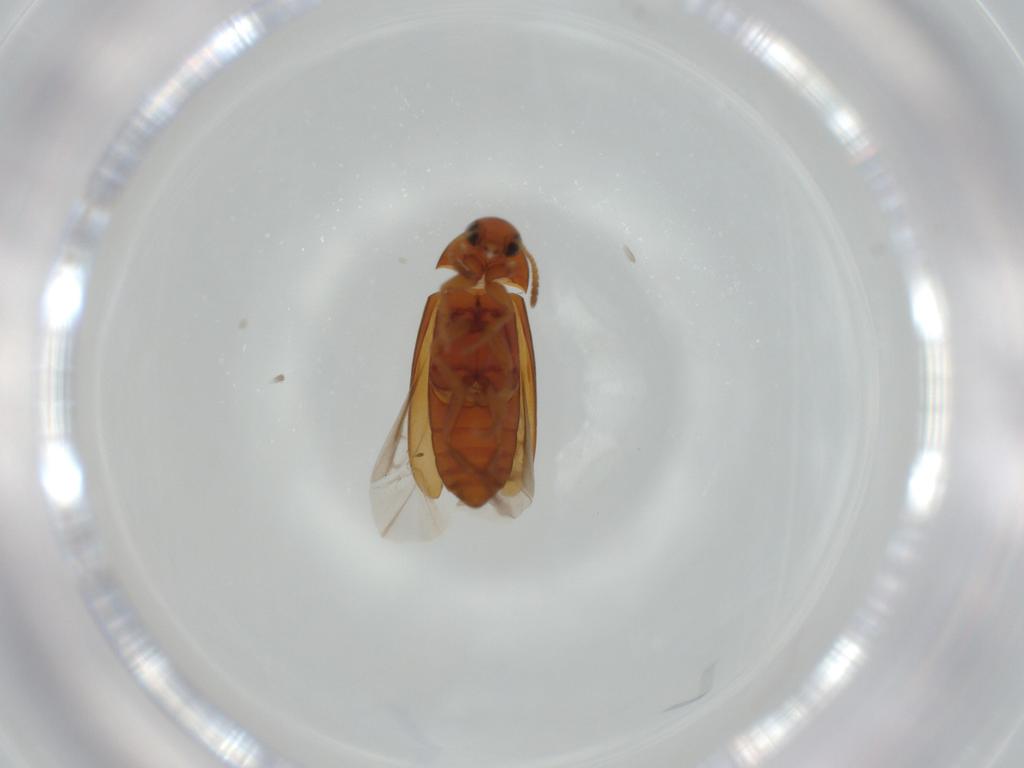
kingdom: Animalia
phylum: Arthropoda
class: Insecta
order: Coleoptera
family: Scraptiidae
